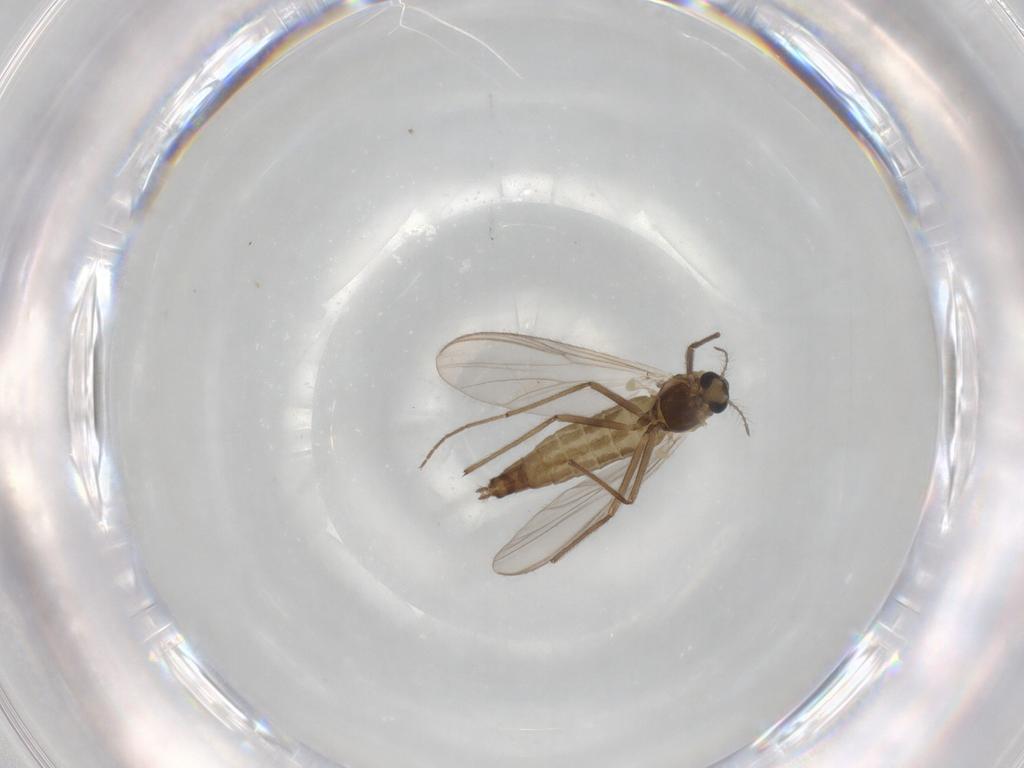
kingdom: Animalia
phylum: Arthropoda
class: Insecta
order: Diptera
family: Chironomidae
